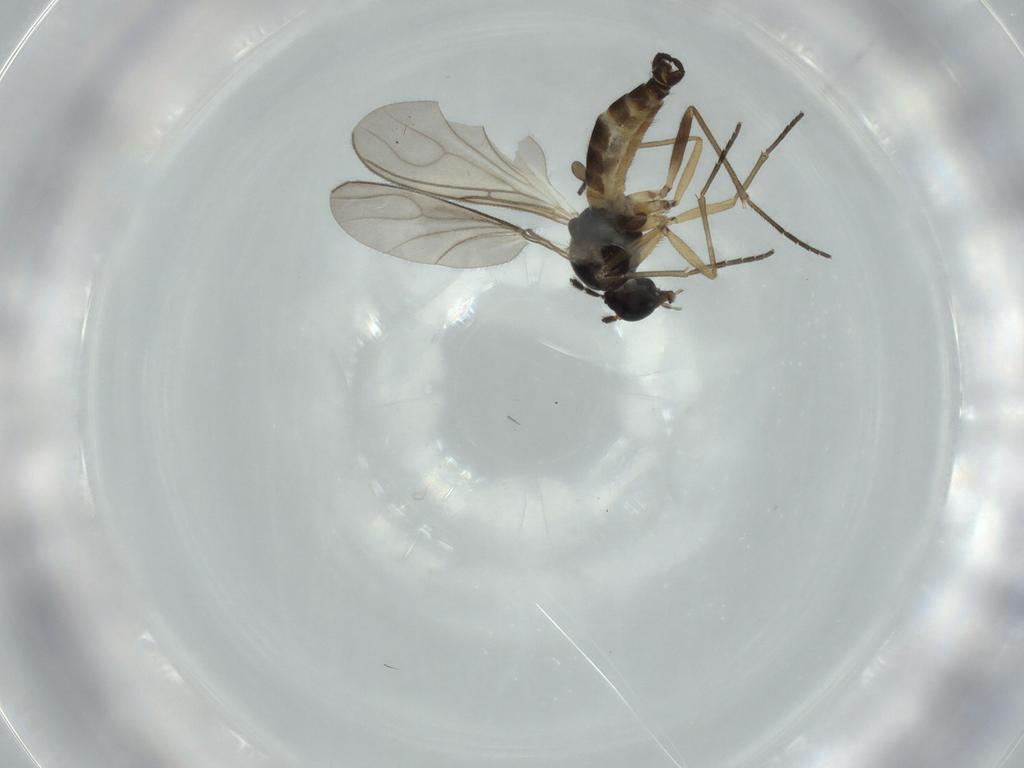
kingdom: Animalia
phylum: Arthropoda
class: Insecta
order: Diptera
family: Sciaridae
